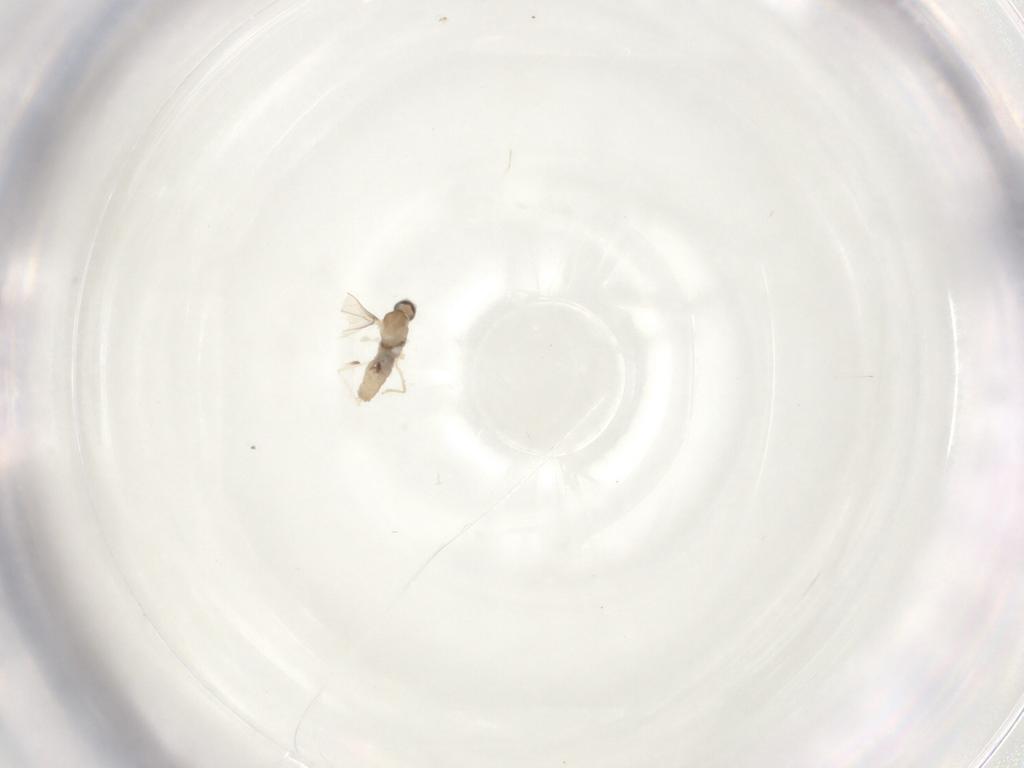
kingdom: Animalia
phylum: Arthropoda
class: Insecta
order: Diptera
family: Cecidomyiidae
